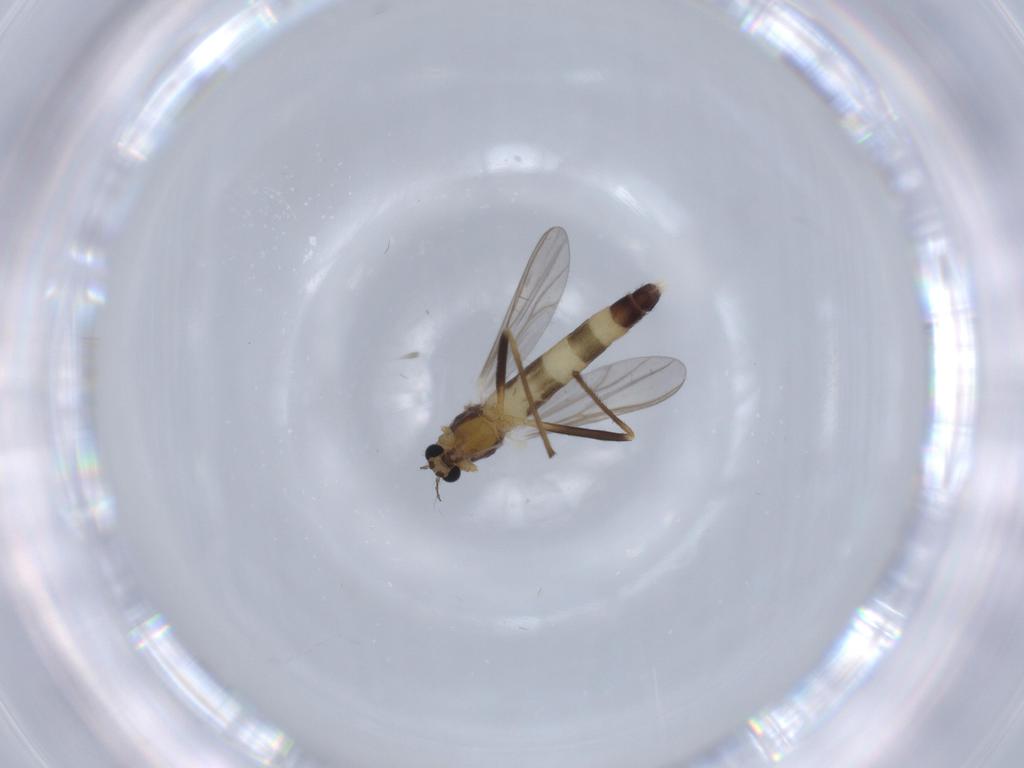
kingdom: Animalia
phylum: Arthropoda
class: Insecta
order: Diptera
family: Chironomidae
